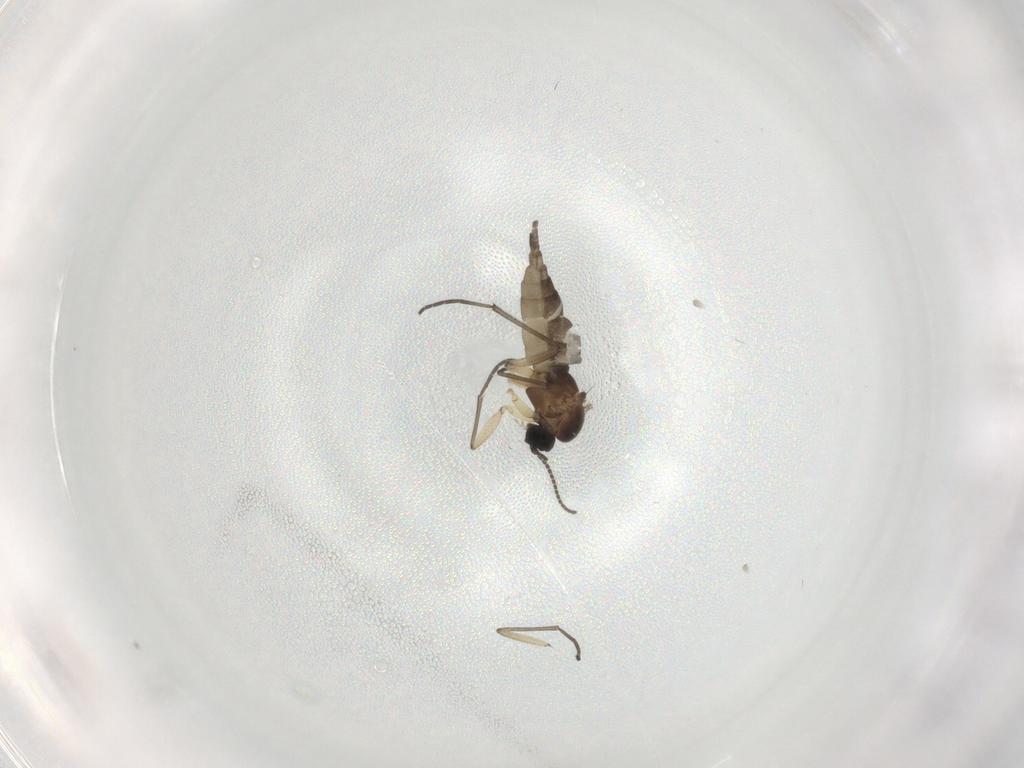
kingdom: Animalia
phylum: Arthropoda
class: Insecta
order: Diptera
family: Sciaridae
